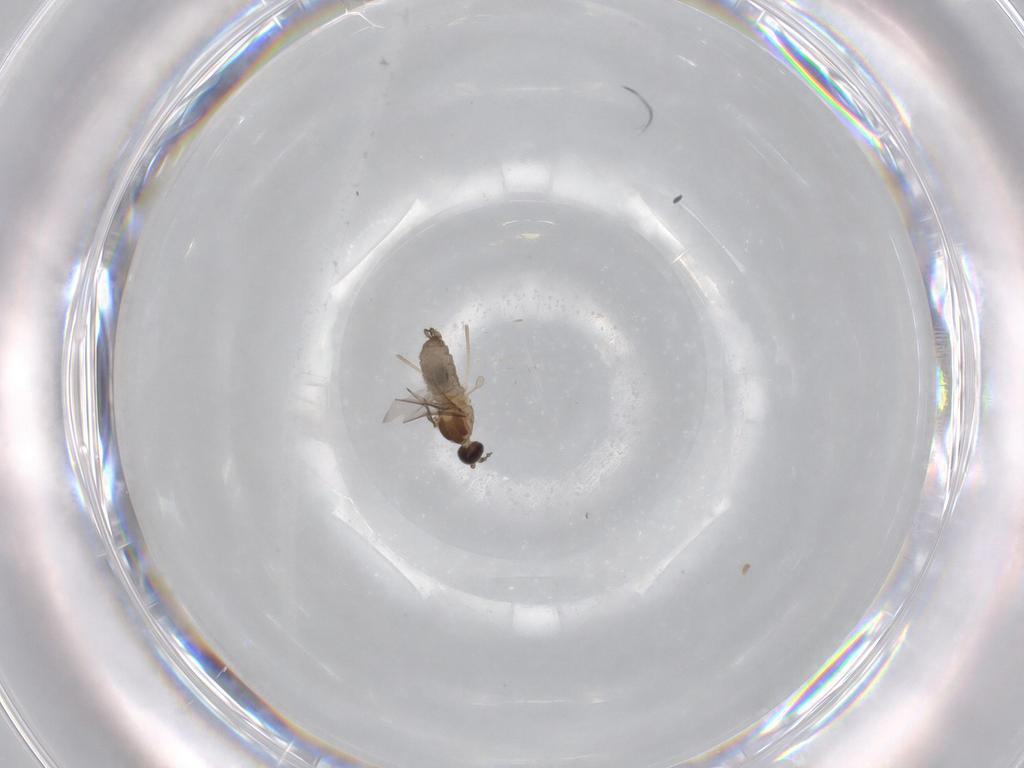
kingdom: Animalia
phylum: Arthropoda
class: Insecta
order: Diptera
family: Cecidomyiidae
